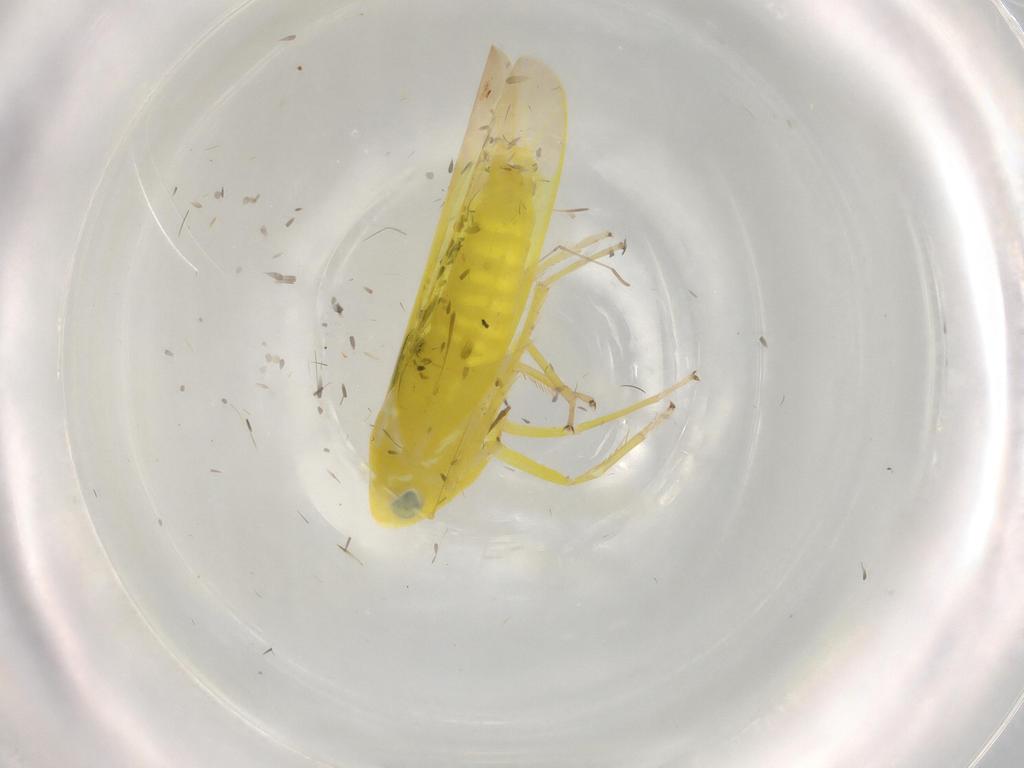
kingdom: Animalia
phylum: Arthropoda
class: Insecta
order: Hemiptera
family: Cicadellidae
